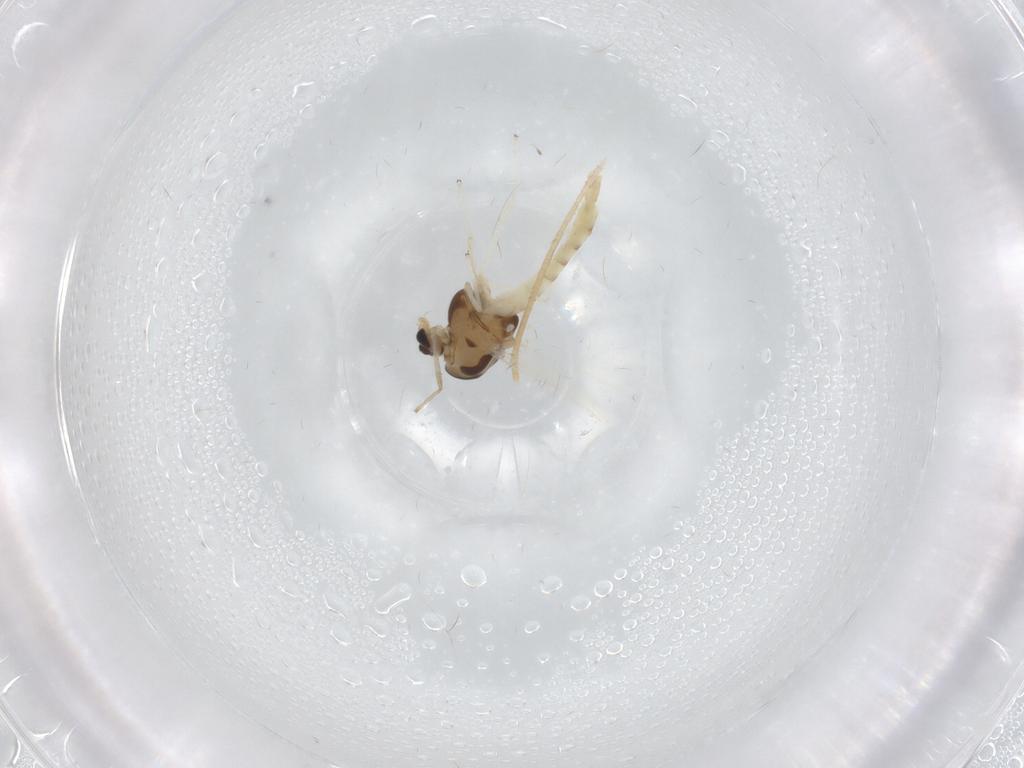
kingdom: Animalia
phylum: Arthropoda
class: Insecta
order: Diptera
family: Chironomidae
